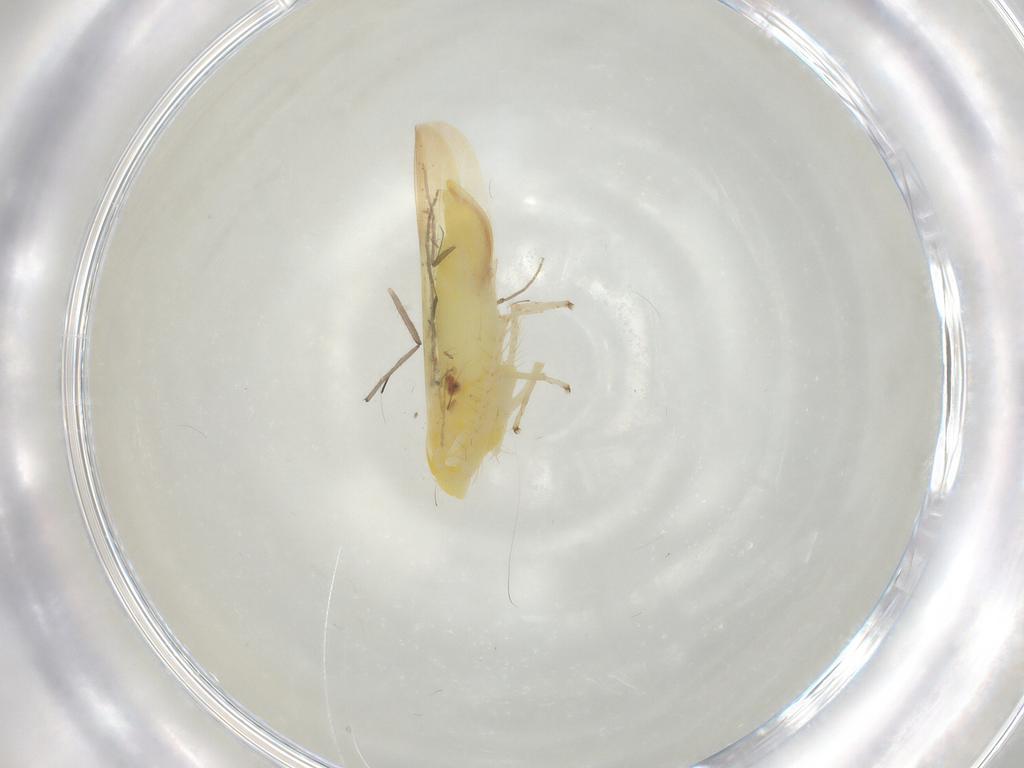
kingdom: Animalia
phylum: Arthropoda
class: Insecta
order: Hemiptera
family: Cicadellidae
